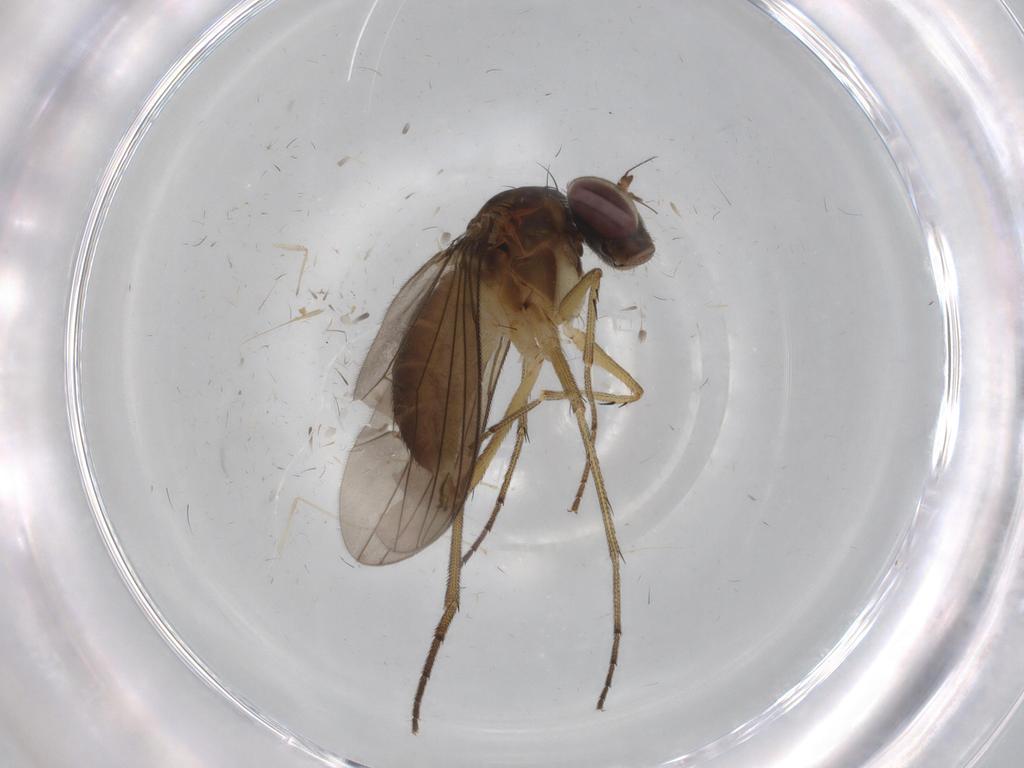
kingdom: Animalia
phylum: Arthropoda
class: Insecta
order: Diptera
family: Dolichopodidae
